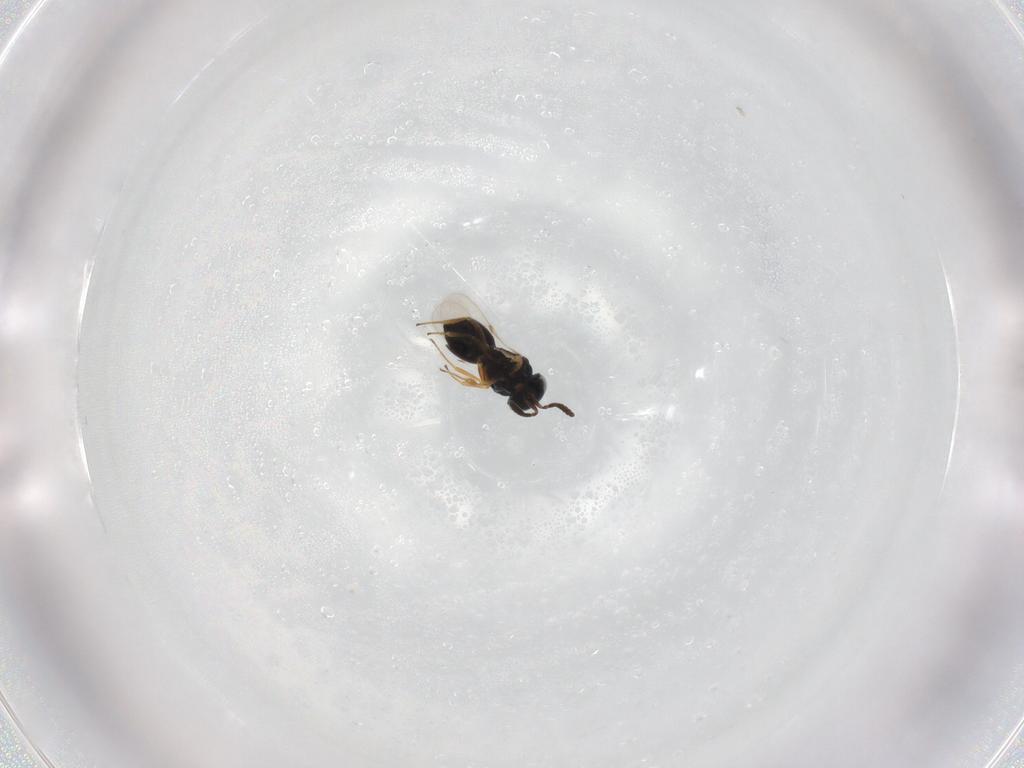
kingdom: Animalia
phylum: Arthropoda
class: Insecta
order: Hymenoptera
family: Scelionidae
